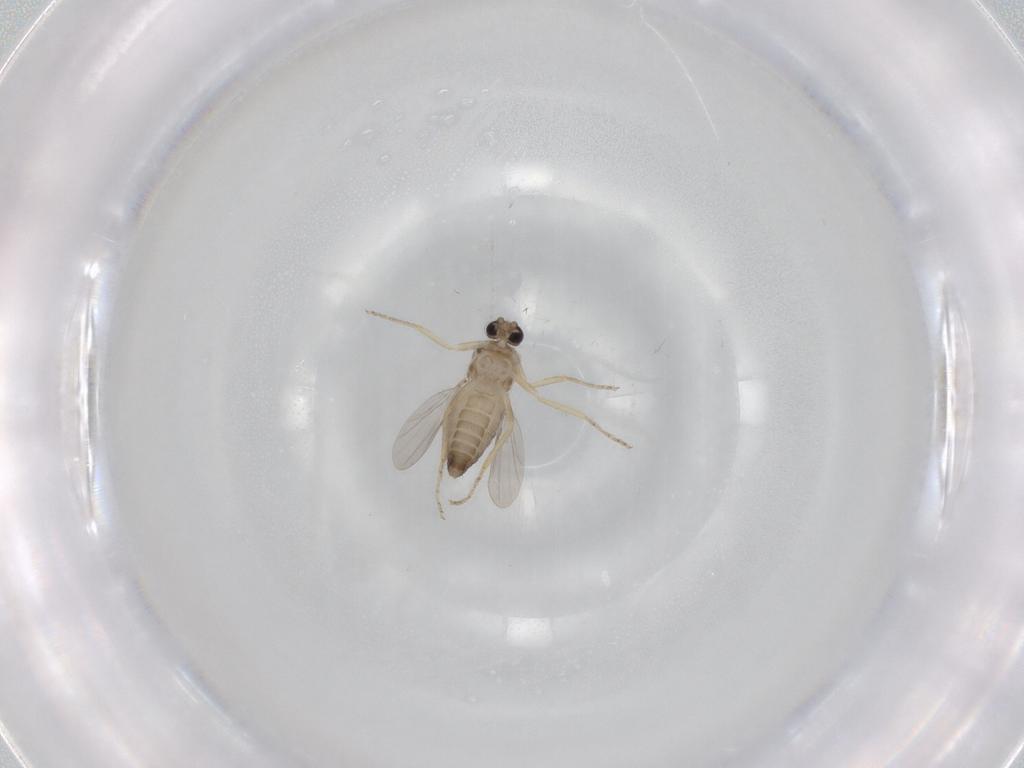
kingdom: Animalia
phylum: Arthropoda
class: Insecta
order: Diptera
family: Ceratopogonidae
